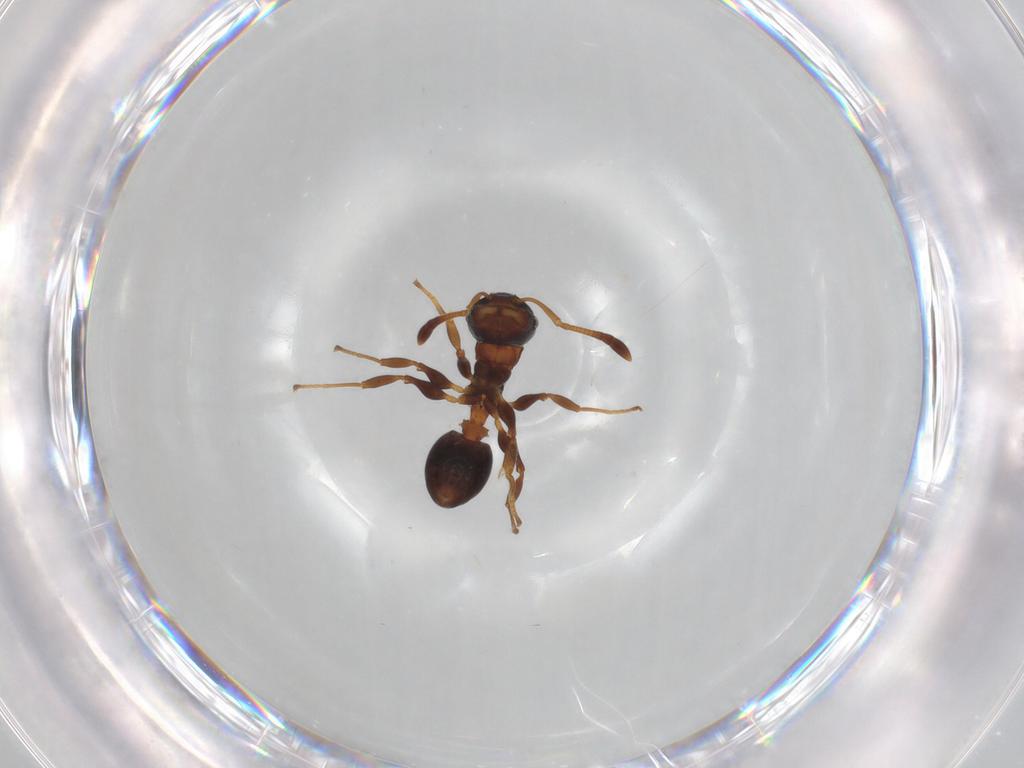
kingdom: Animalia
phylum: Arthropoda
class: Insecta
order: Hymenoptera
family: Formicidae
